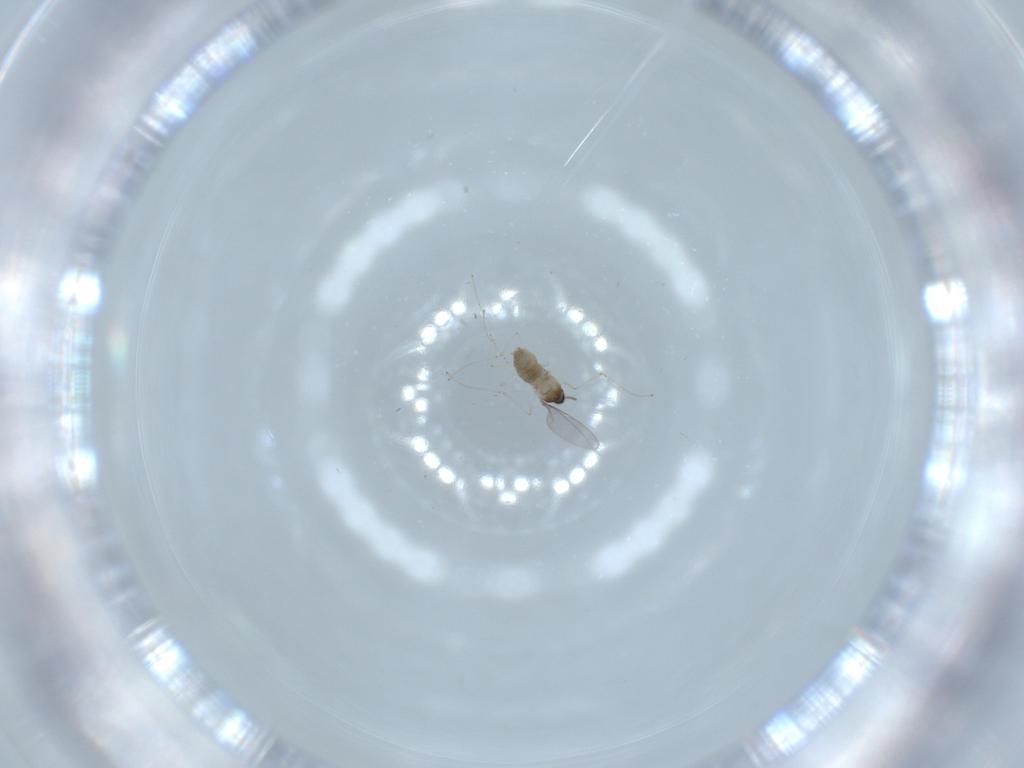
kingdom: Animalia
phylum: Arthropoda
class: Insecta
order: Diptera
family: Cecidomyiidae
